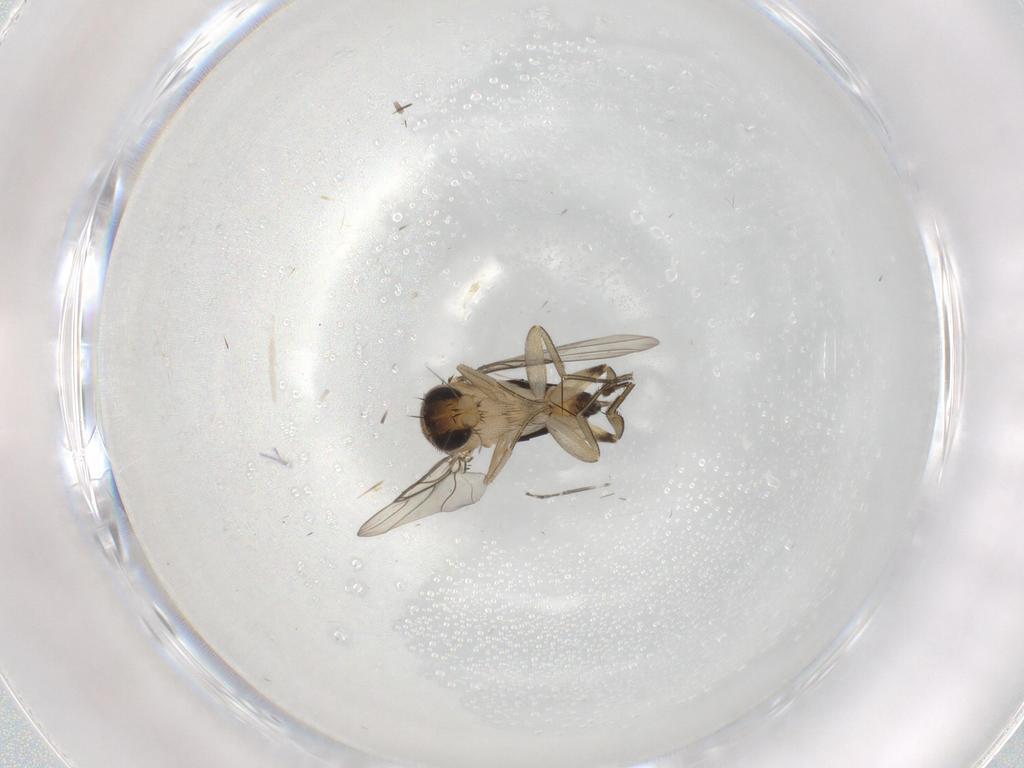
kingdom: Animalia
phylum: Arthropoda
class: Insecta
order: Diptera
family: Phoridae
